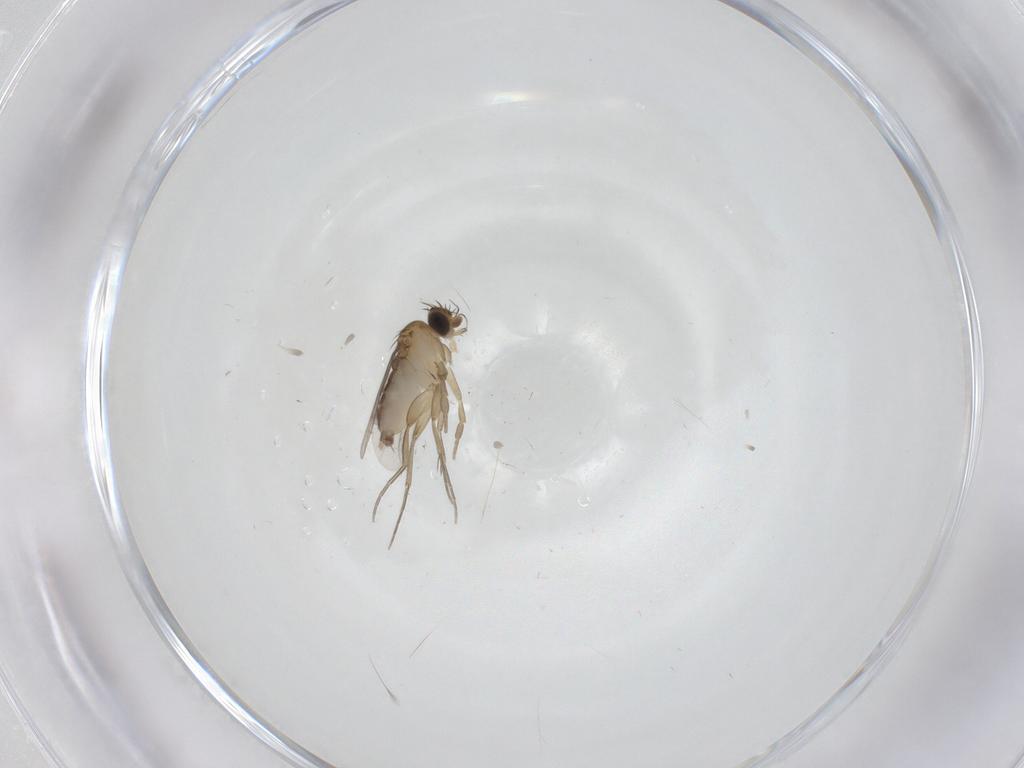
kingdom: Animalia
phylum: Arthropoda
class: Insecta
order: Diptera
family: Phoridae
